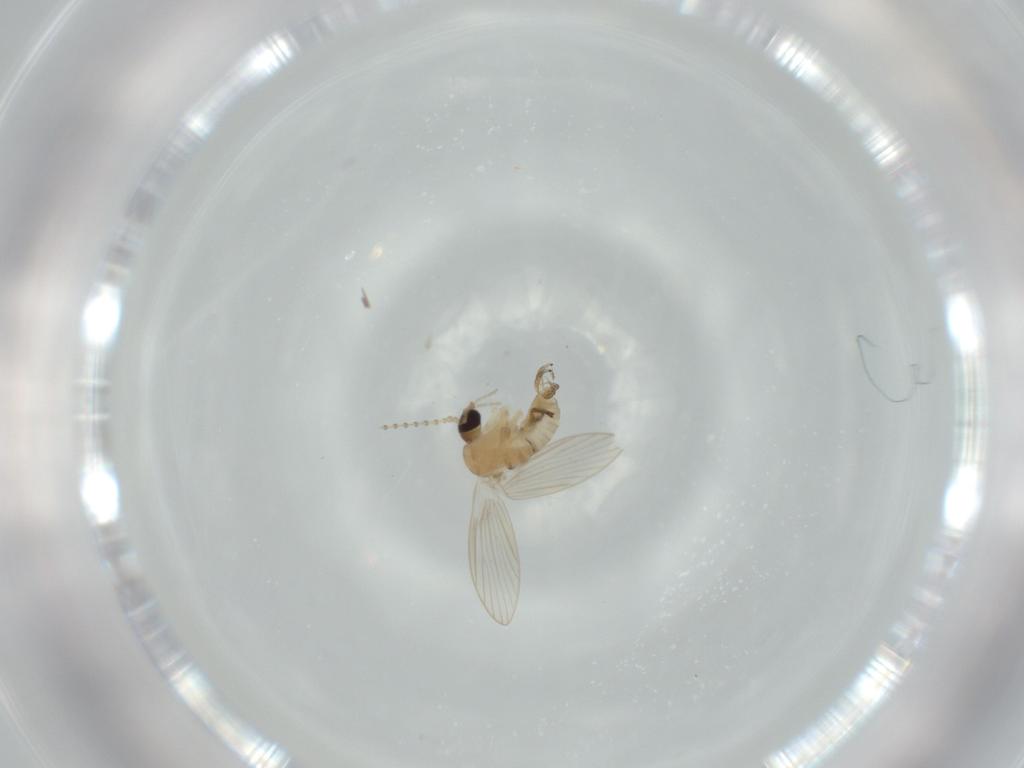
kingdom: Animalia
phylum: Arthropoda
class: Insecta
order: Diptera
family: Psychodidae
